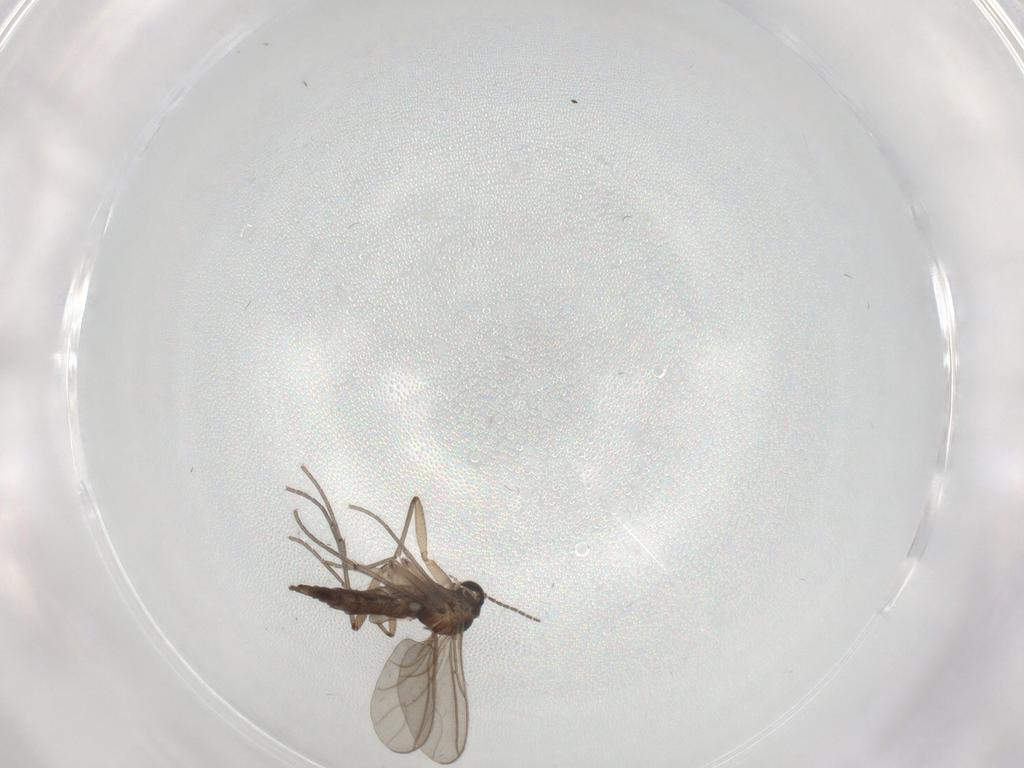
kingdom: Animalia
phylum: Arthropoda
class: Insecta
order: Diptera
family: Sciaridae
